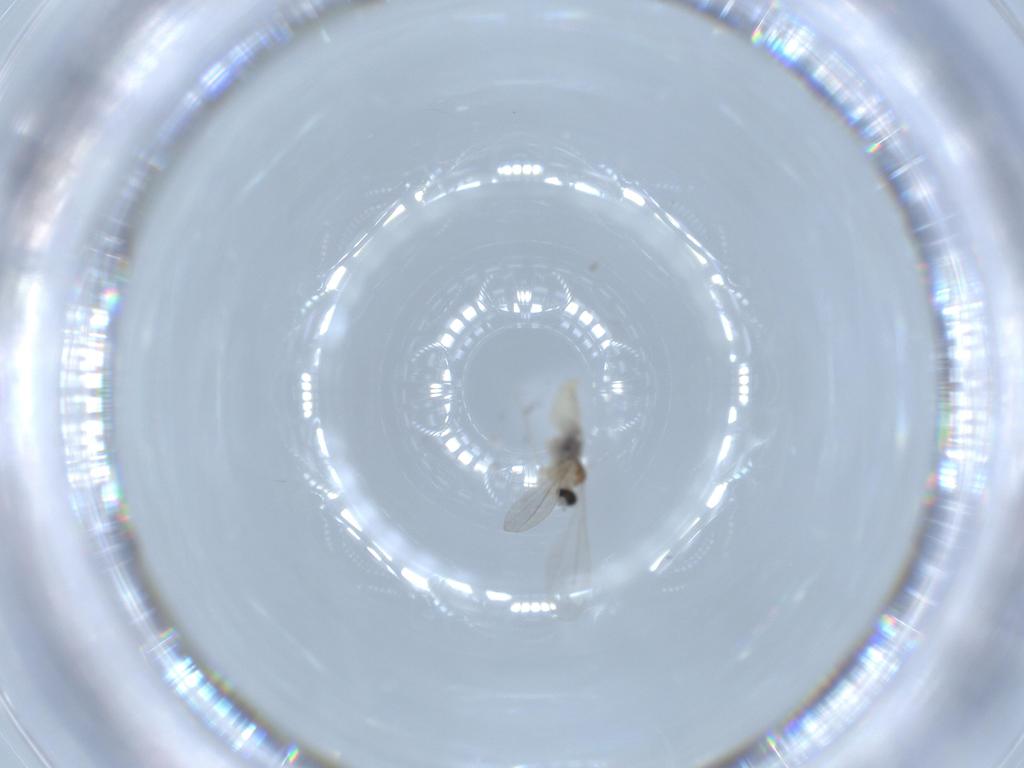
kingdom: Animalia
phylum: Arthropoda
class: Insecta
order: Diptera
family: Cecidomyiidae
